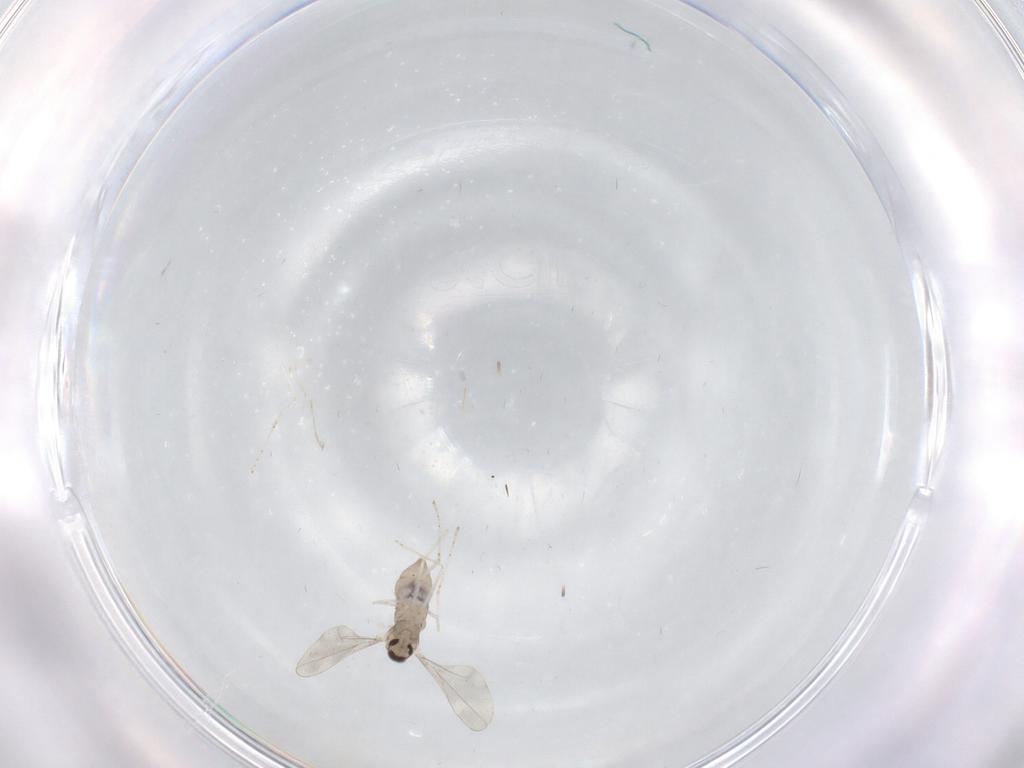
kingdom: Animalia
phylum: Arthropoda
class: Insecta
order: Diptera
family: Cecidomyiidae
